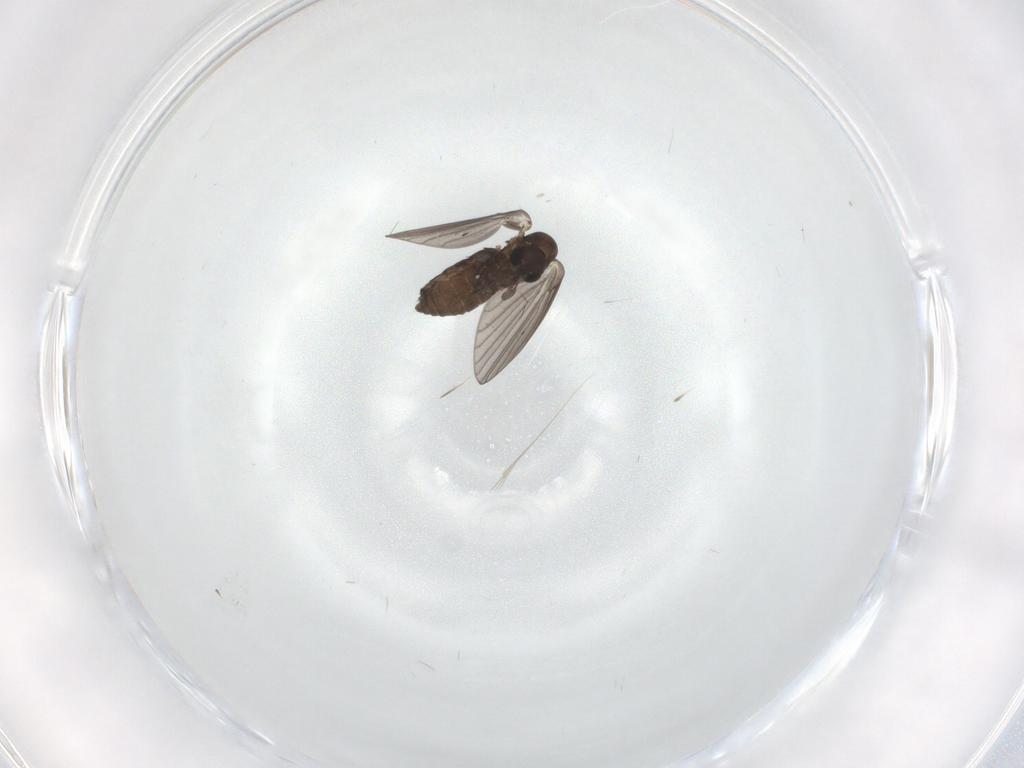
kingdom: Animalia
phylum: Arthropoda
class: Insecta
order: Diptera
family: Psychodidae
